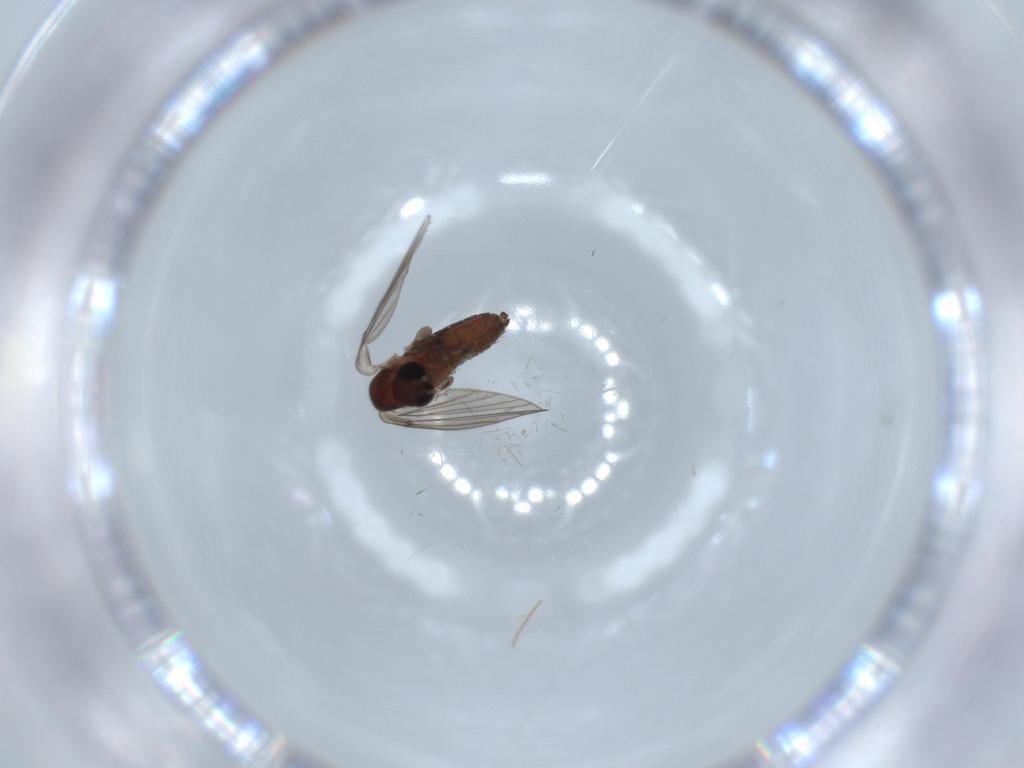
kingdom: Animalia
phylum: Arthropoda
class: Insecta
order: Diptera
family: Cecidomyiidae
